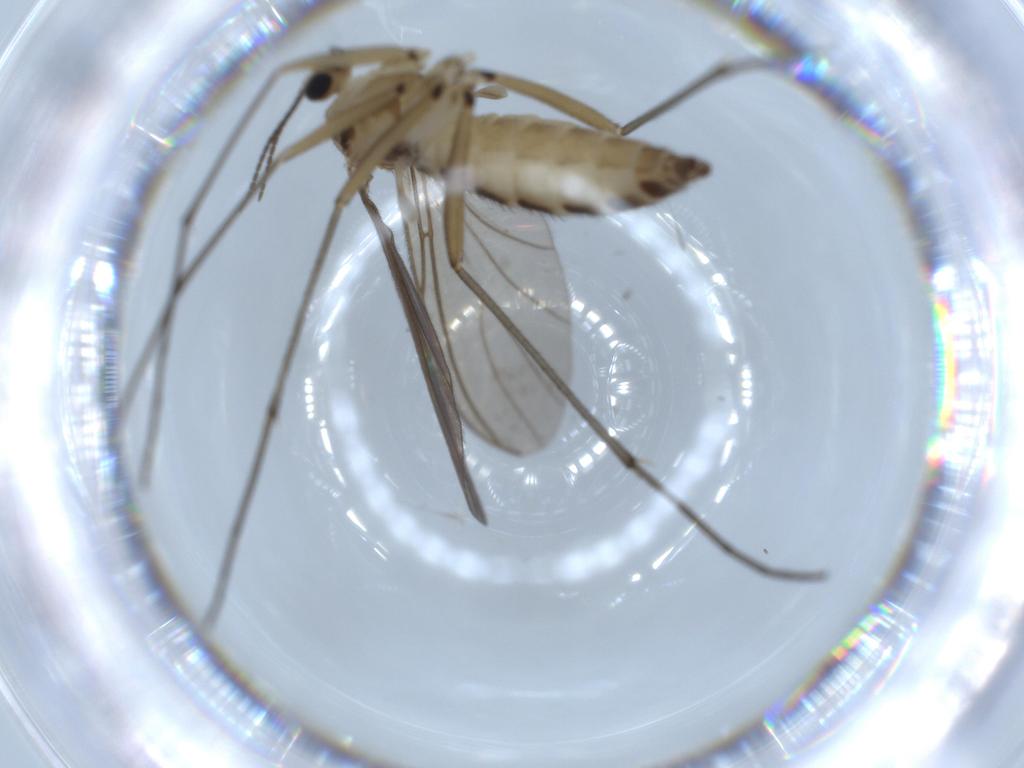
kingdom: Animalia
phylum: Arthropoda
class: Insecta
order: Diptera
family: Sciaridae
